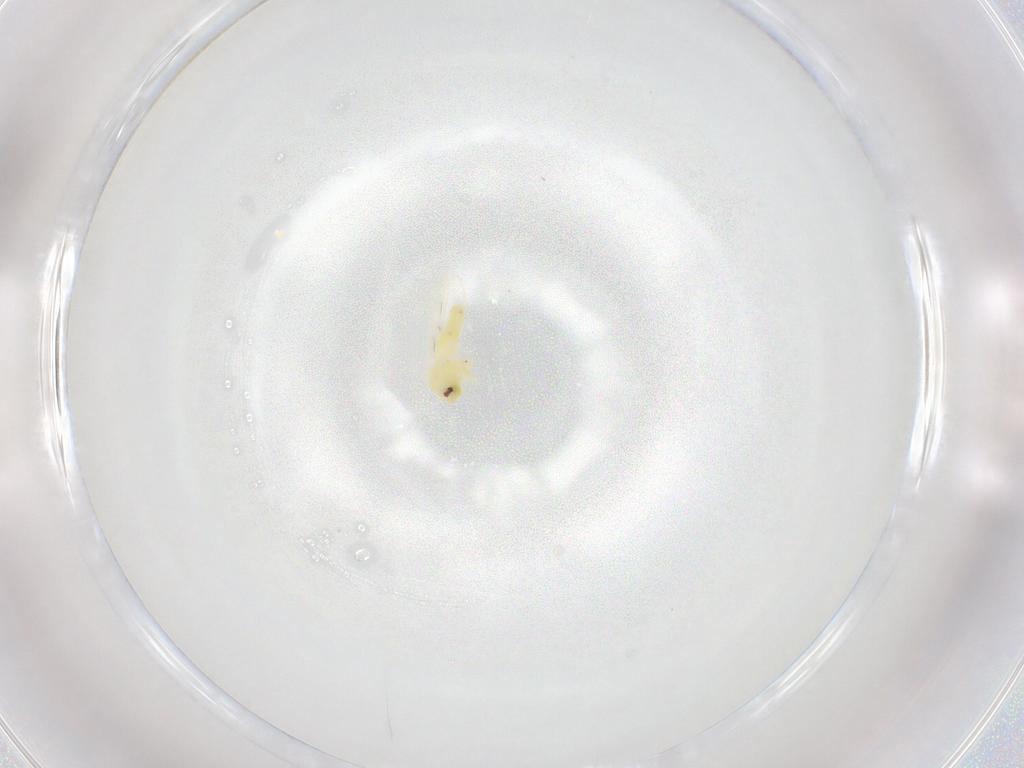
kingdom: Animalia
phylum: Arthropoda
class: Insecta
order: Hemiptera
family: Aleyrodidae
